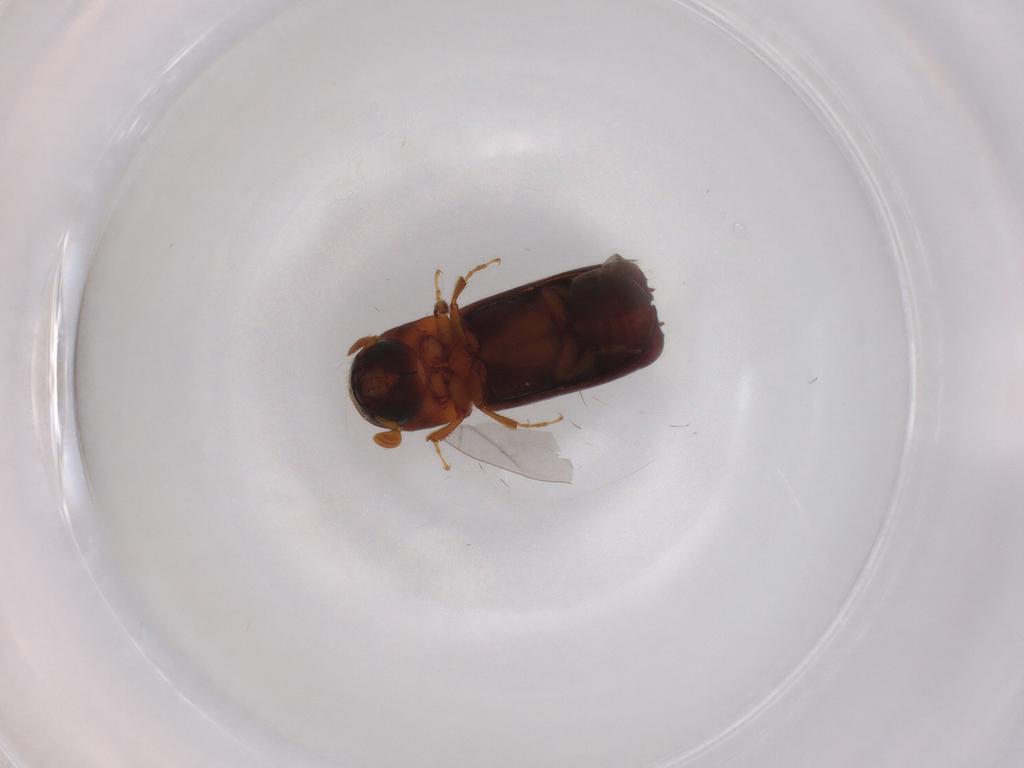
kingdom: Animalia
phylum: Arthropoda
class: Insecta
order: Coleoptera
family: Curculionidae
